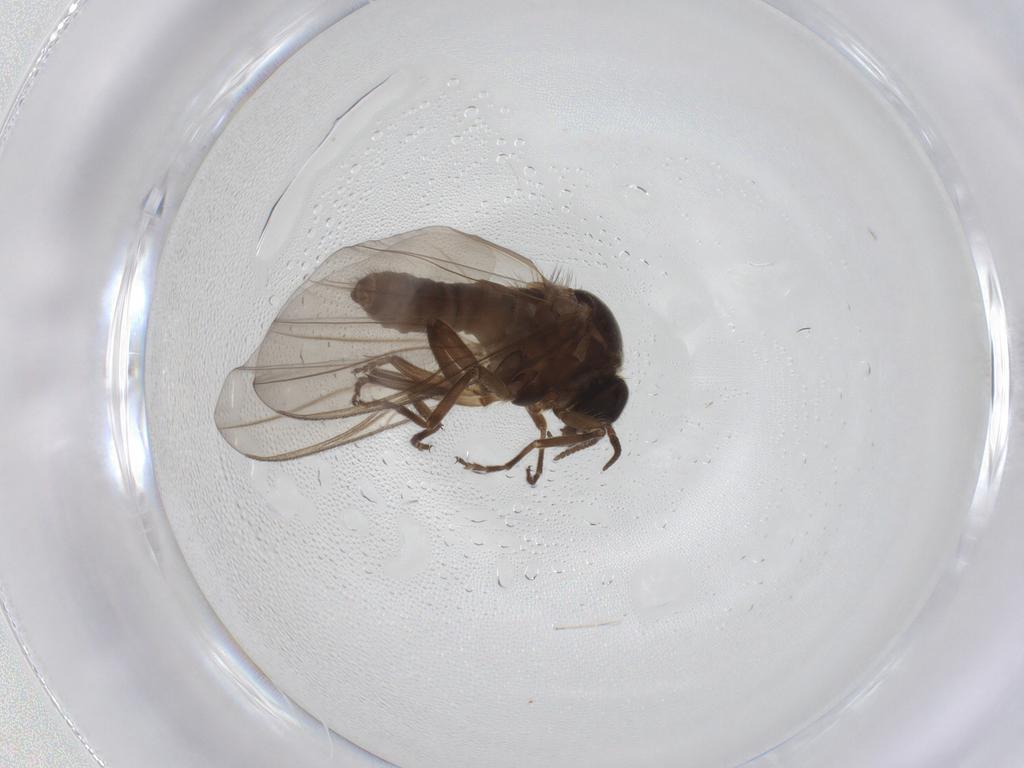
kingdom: Animalia
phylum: Arthropoda
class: Insecta
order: Diptera
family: Simuliidae
